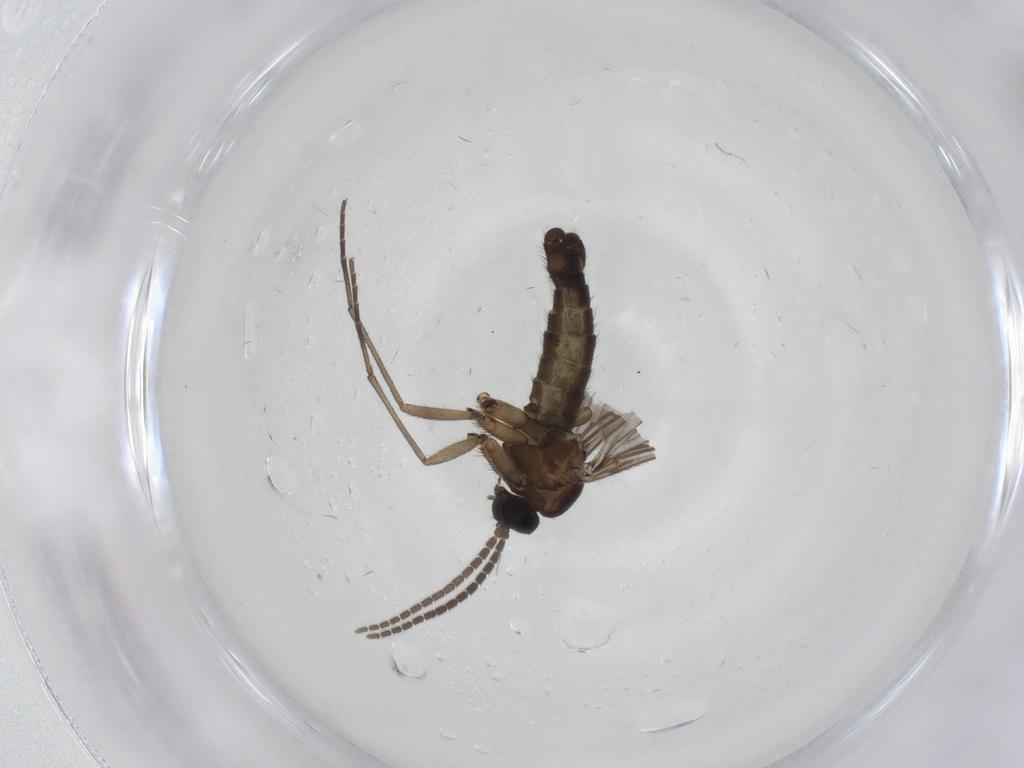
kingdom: Animalia
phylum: Arthropoda
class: Insecta
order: Diptera
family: Sciaridae
